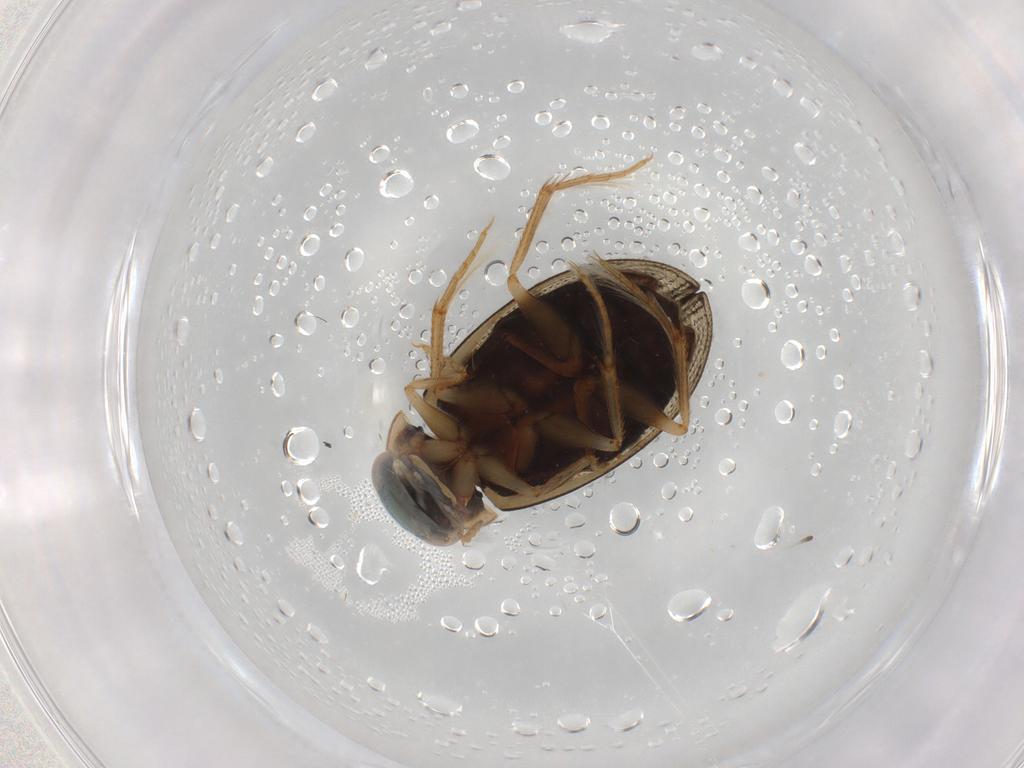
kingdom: Animalia
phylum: Arthropoda
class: Insecta
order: Coleoptera
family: Hydrophilidae
